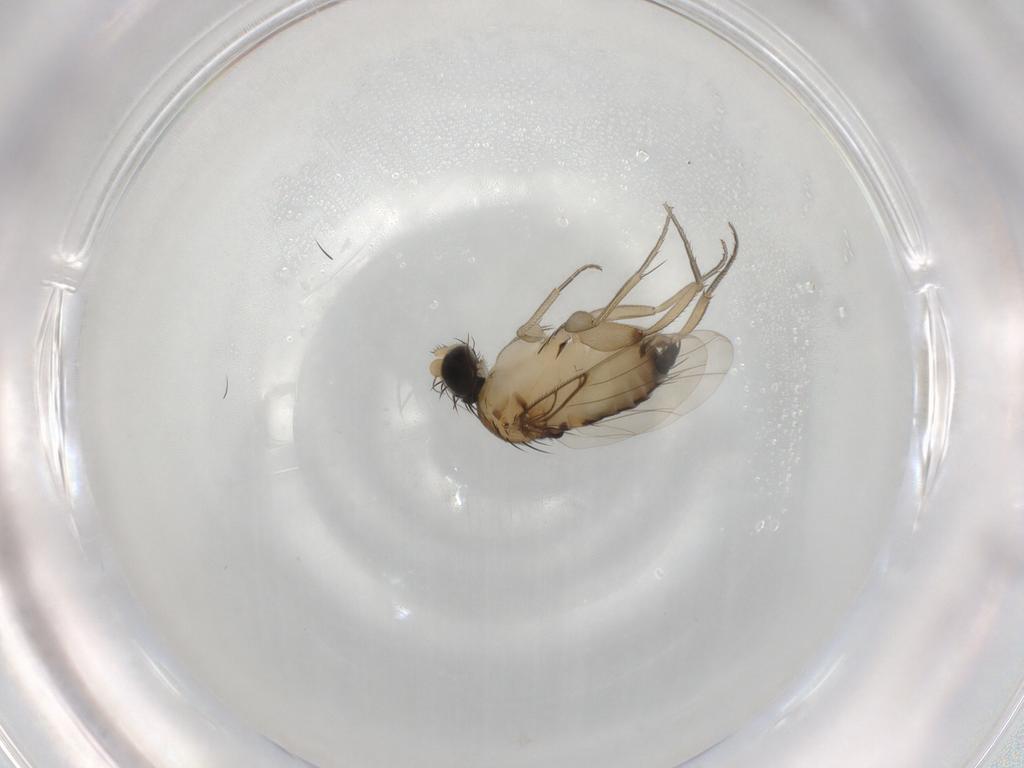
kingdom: Animalia
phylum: Arthropoda
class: Insecta
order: Diptera
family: Phoridae
